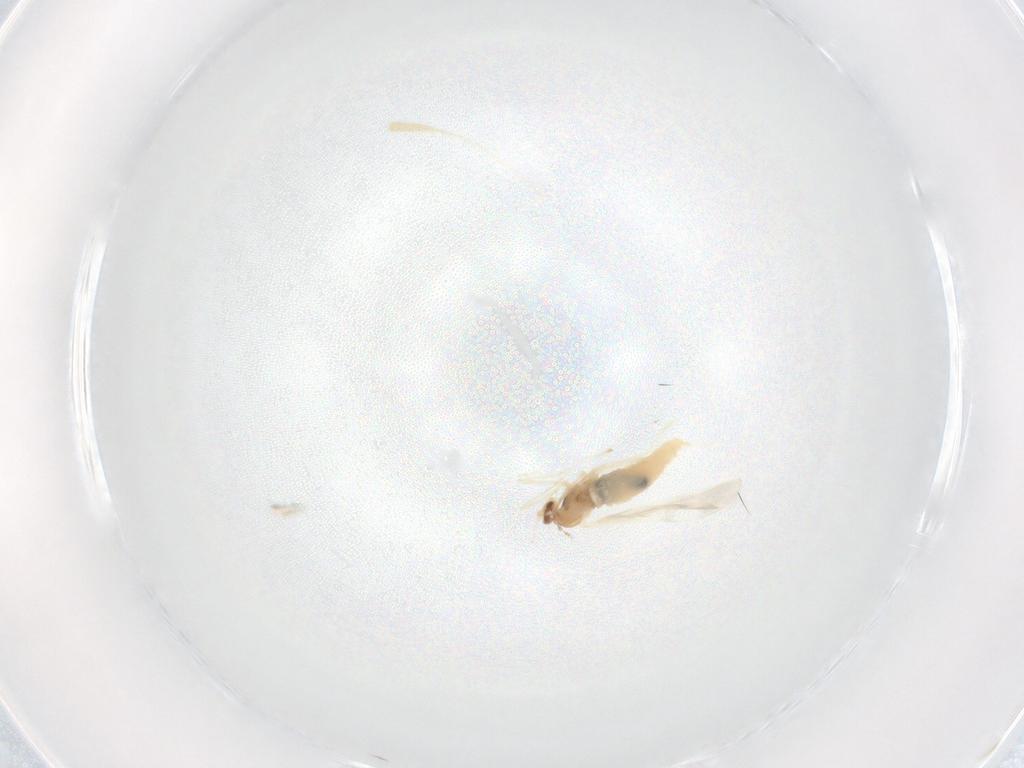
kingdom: Animalia
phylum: Arthropoda
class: Insecta
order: Diptera
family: Cecidomyiidae
